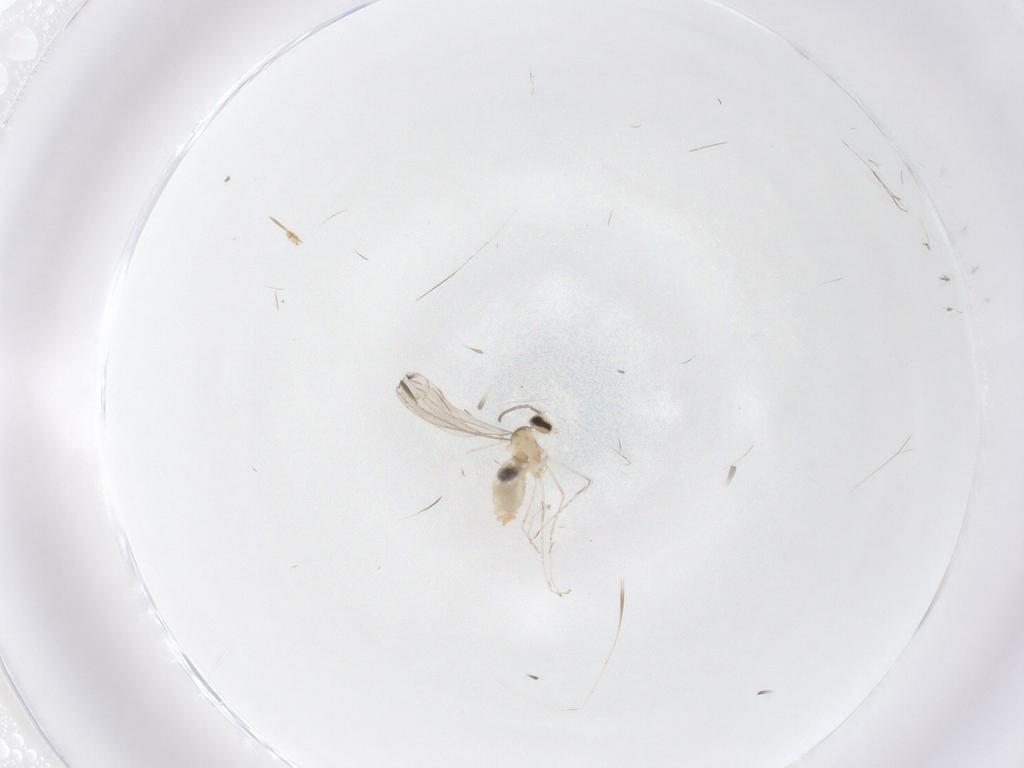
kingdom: Animalia
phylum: Arthropoda
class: Insecta
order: Diptera
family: Cecidomyiidae
